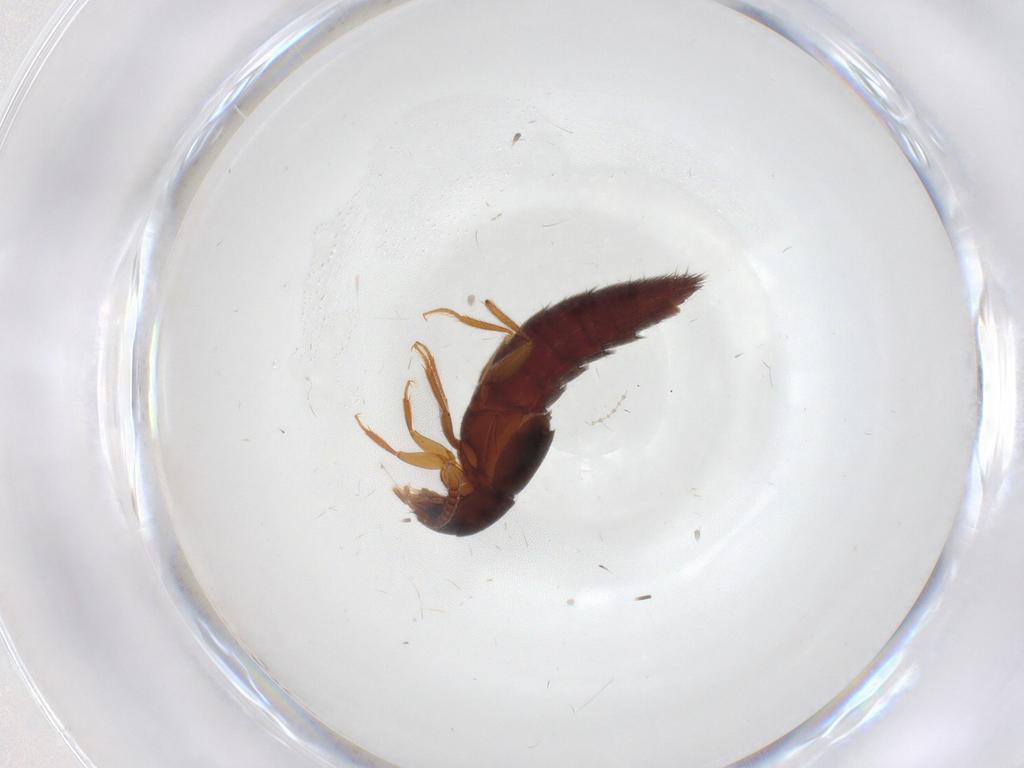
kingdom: Animalia
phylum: Arthropoda
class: Insecta
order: Coleoptera
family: Staphylinidae
